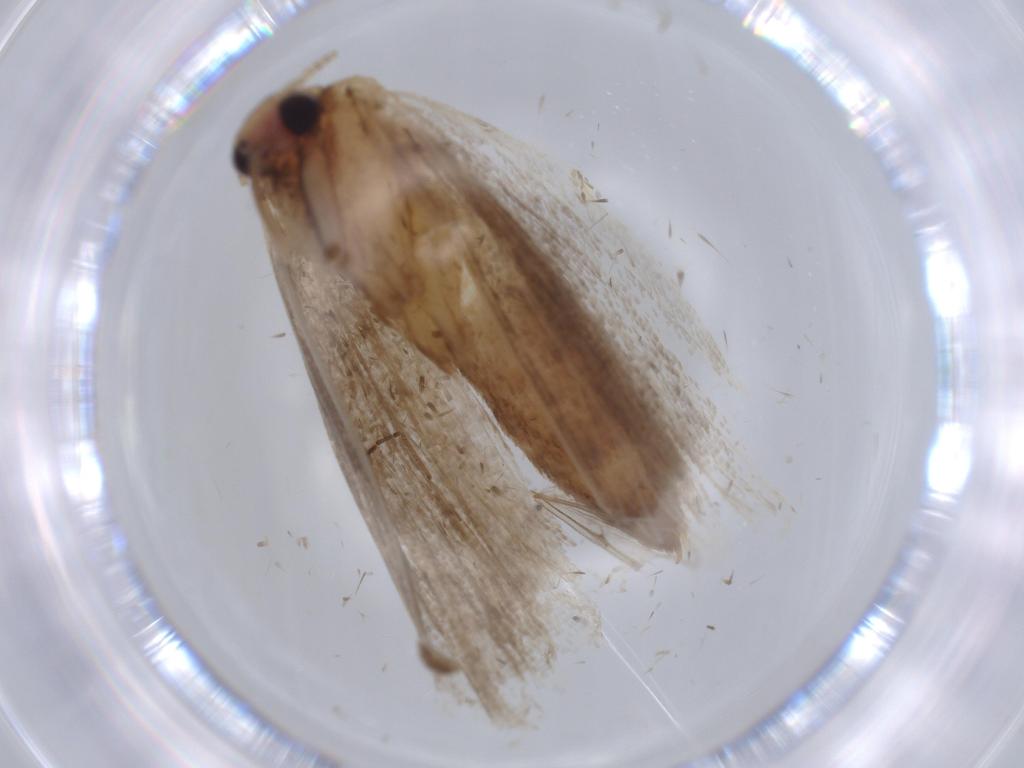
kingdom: Animalia
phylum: Arthropoda
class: Insecta
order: Lepidoptera
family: Erebidae
